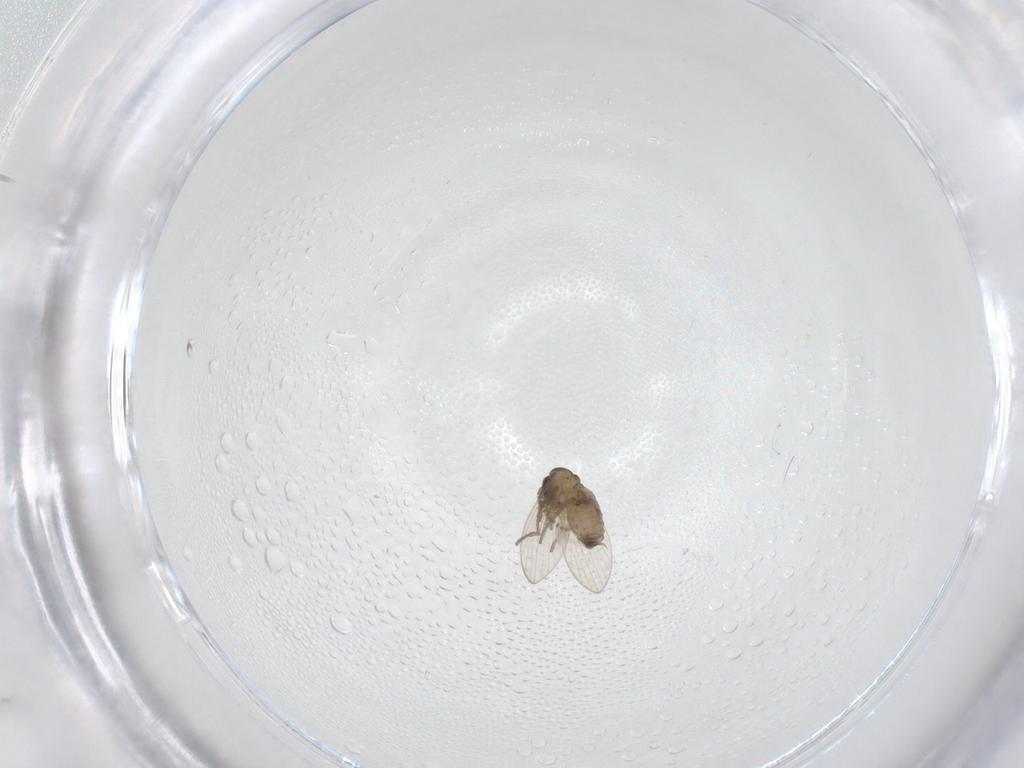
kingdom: Animalia
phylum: Arthropoda
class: Insecta
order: Diptera
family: Psychodidae
